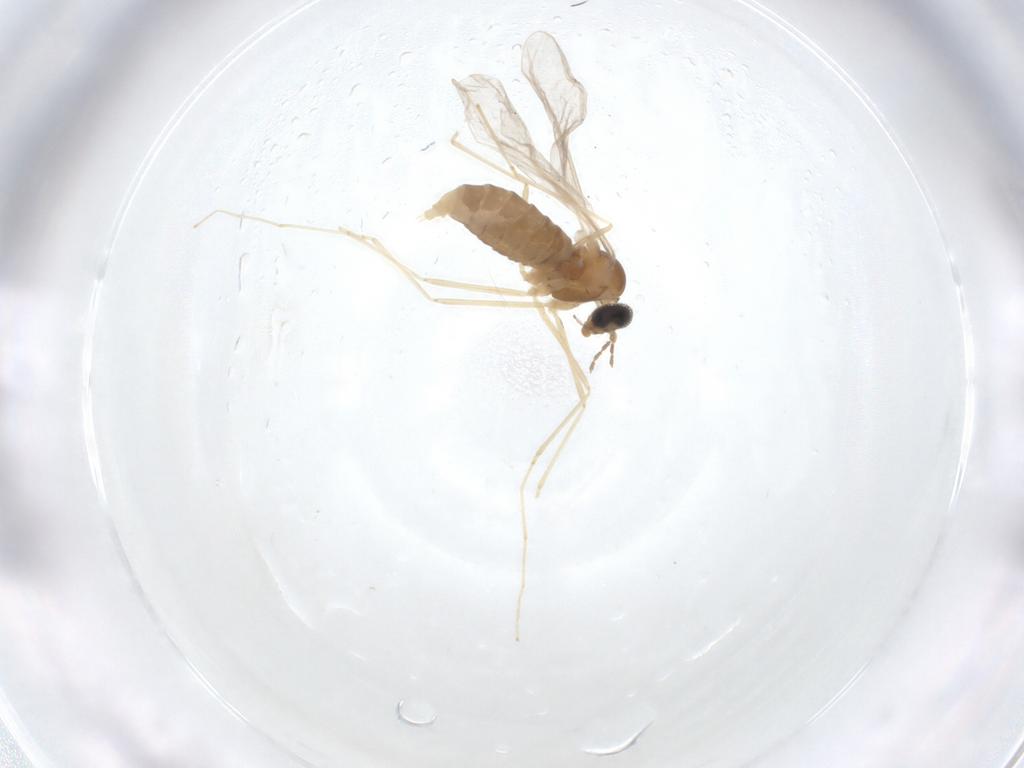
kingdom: Animalia
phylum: Arthropoda
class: Insecta
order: Diptera
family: Cecidomyiidae
